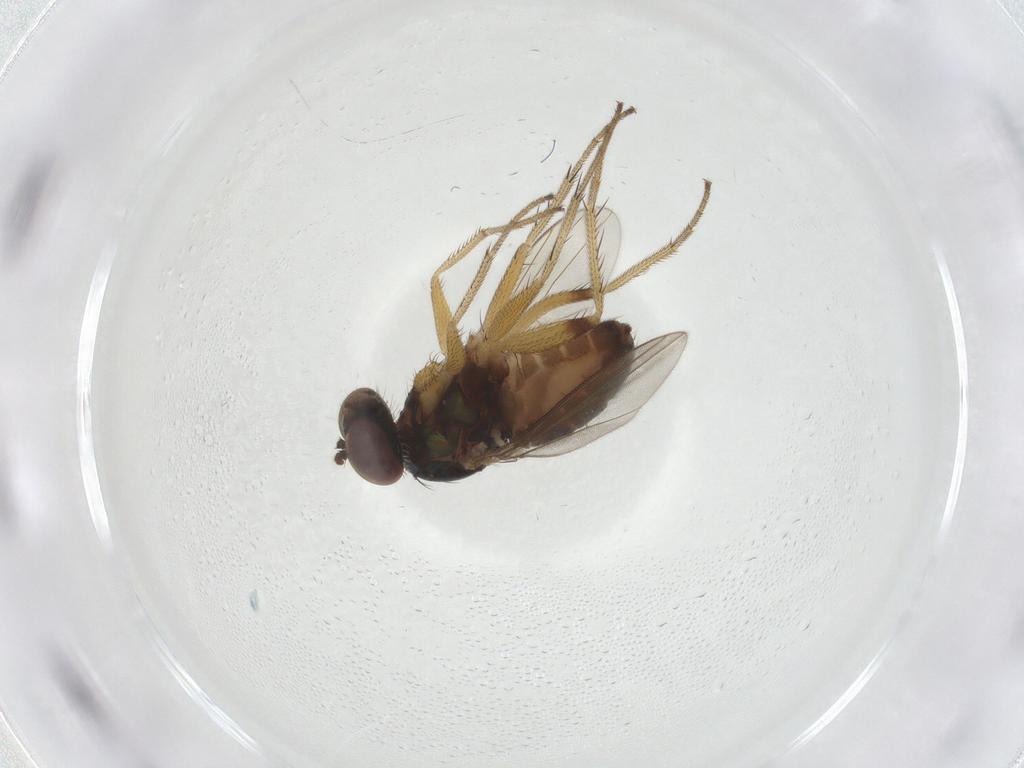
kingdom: Animalia
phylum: Arthropoda
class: Insecta
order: Diptera
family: Dolichopodidae
